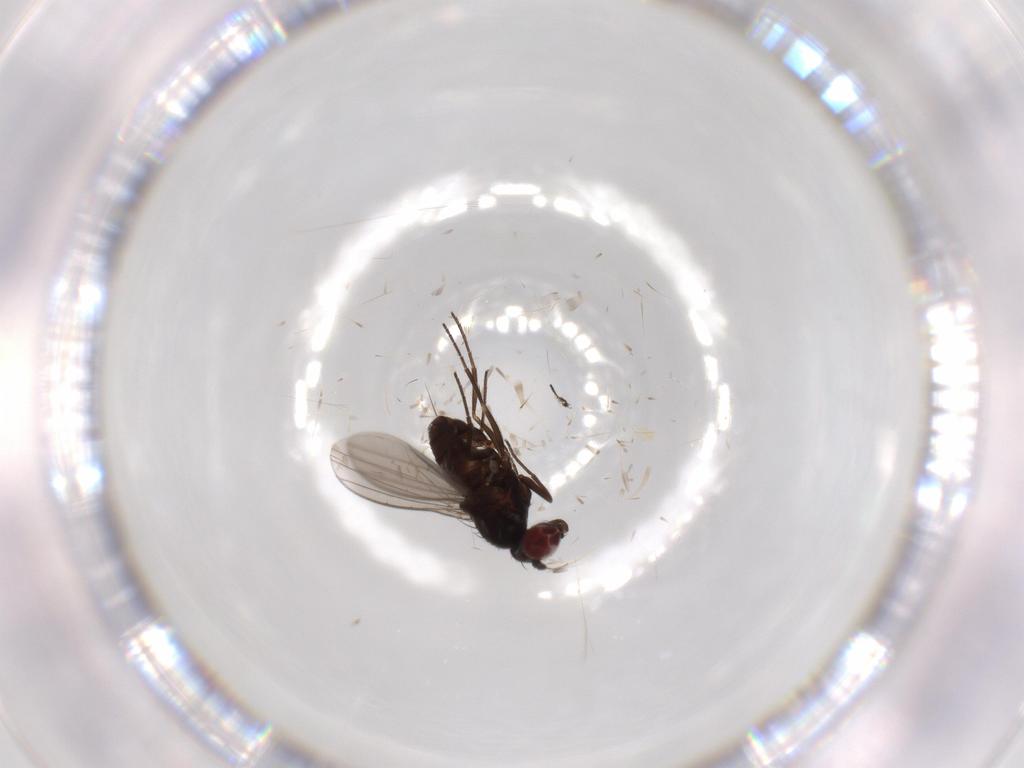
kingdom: Animalia
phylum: Arthropoda
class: Insecta
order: Diptera
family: Dolichopodidae
